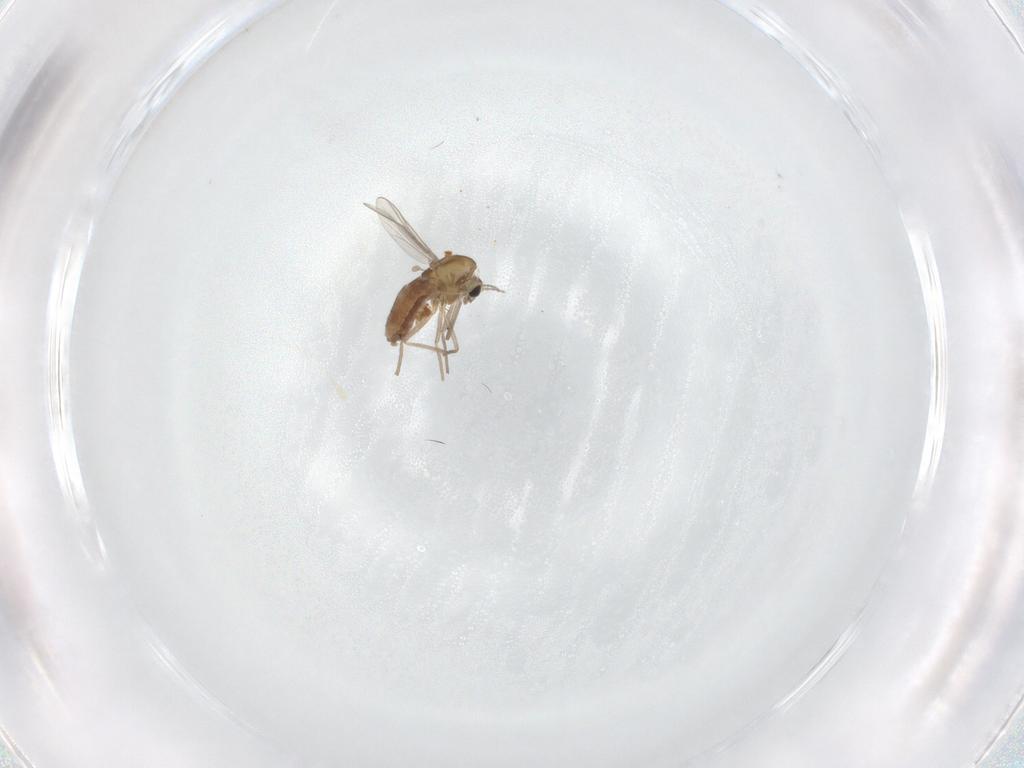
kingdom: Animalia
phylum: Arthropoda
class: Insecta
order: Diptera
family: Chironomidae
